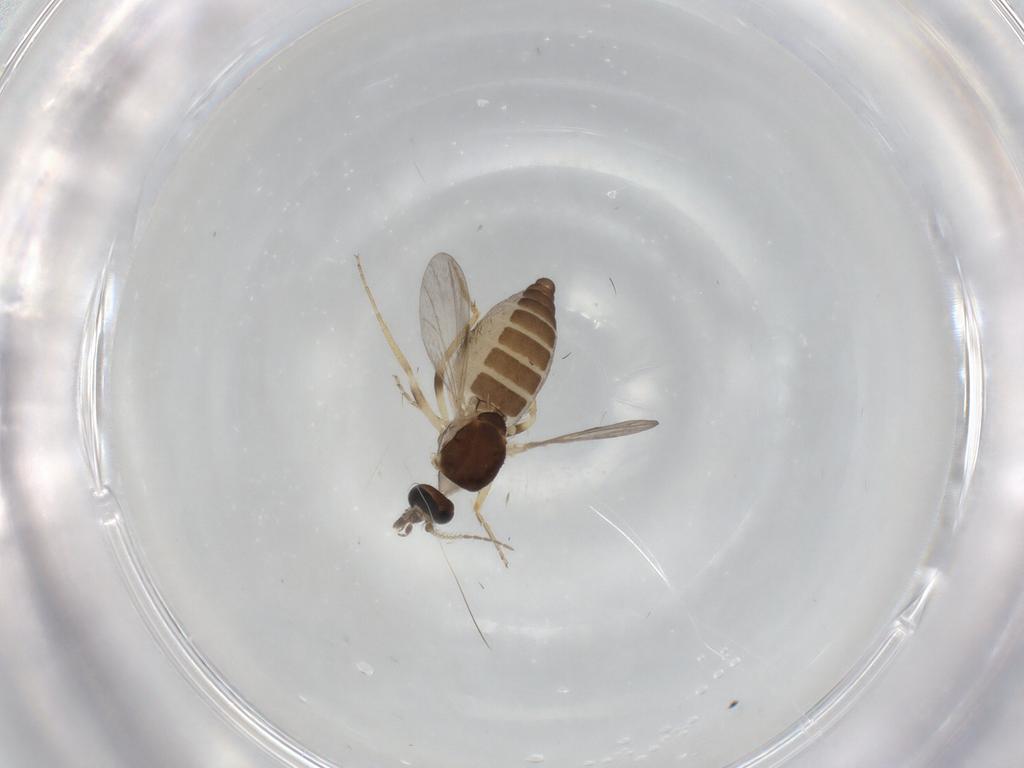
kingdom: Animalia
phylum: Arthropoda
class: Insecta
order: Diptera
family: Ceratopogonidae
